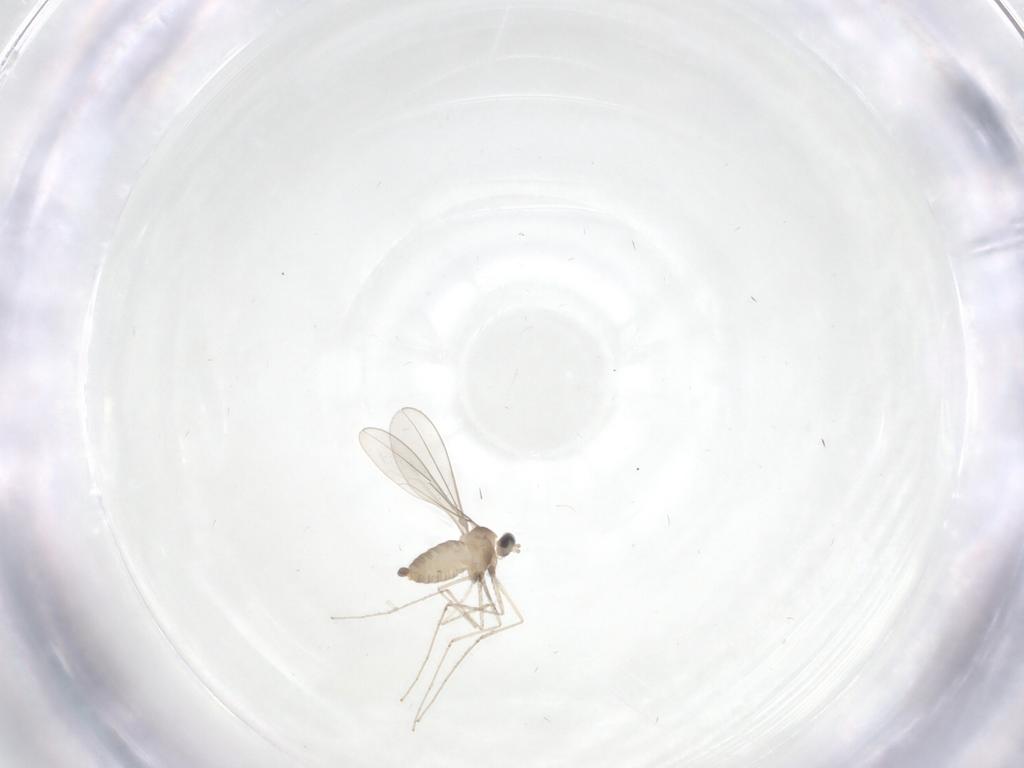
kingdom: Animalia
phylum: Arthropoda
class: Insecta
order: Diptera
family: Cecidomyiidae
